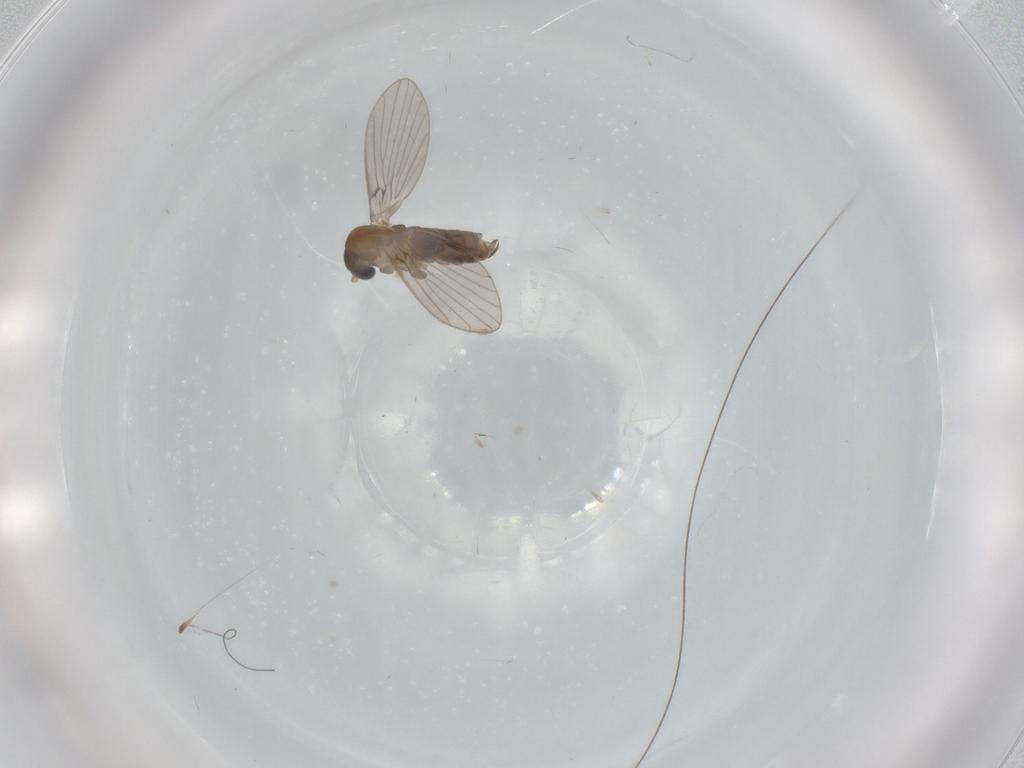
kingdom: Animalia
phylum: Arthropoda
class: Insecta
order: Diptera
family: Psychodidae
